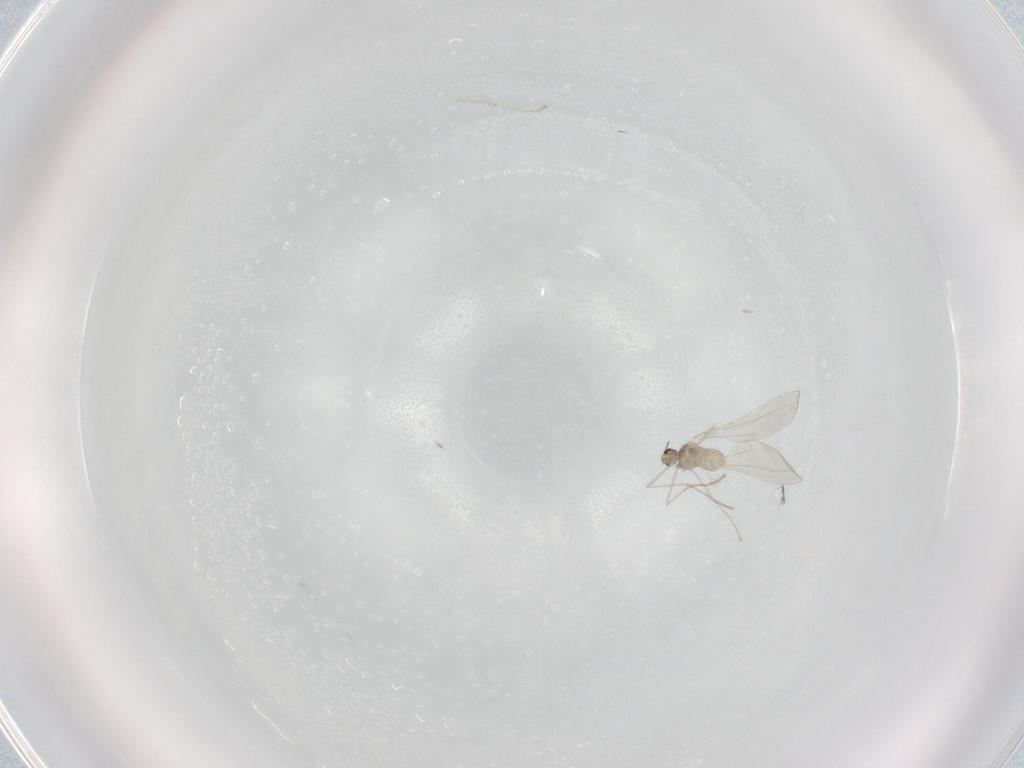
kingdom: Animalia
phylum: Arthropoda
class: Insecta
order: Diptera
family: Pipunculidae
